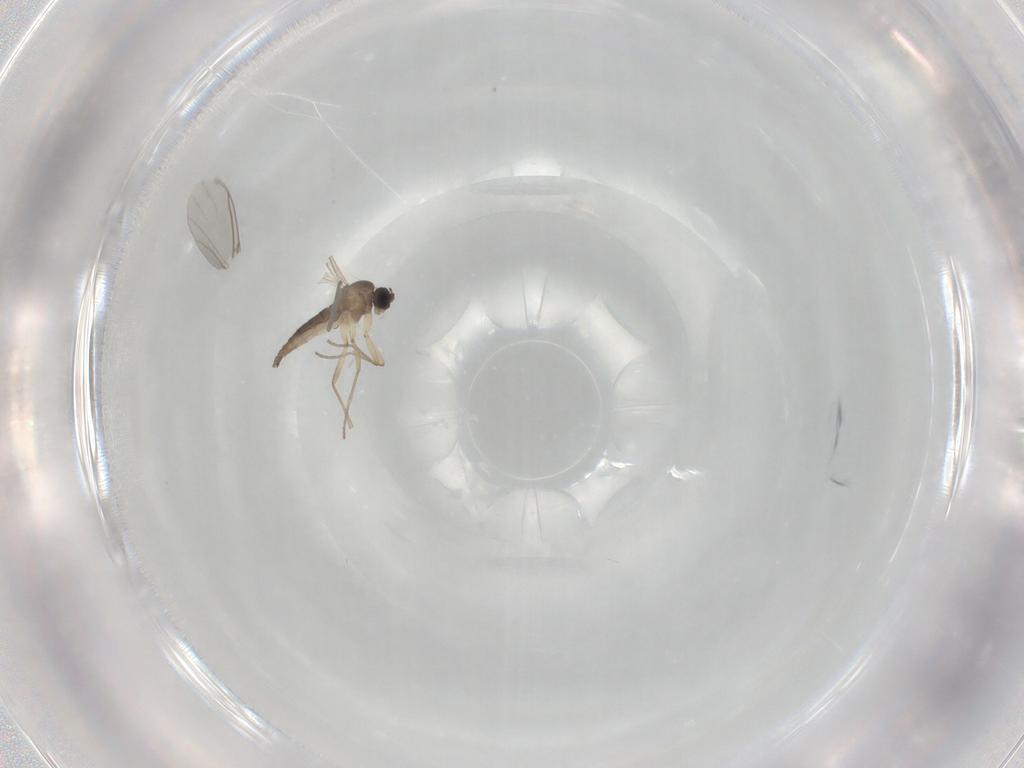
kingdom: Animalia
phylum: Arthropoda
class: Insecta
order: Diptera
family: Sciaridae
